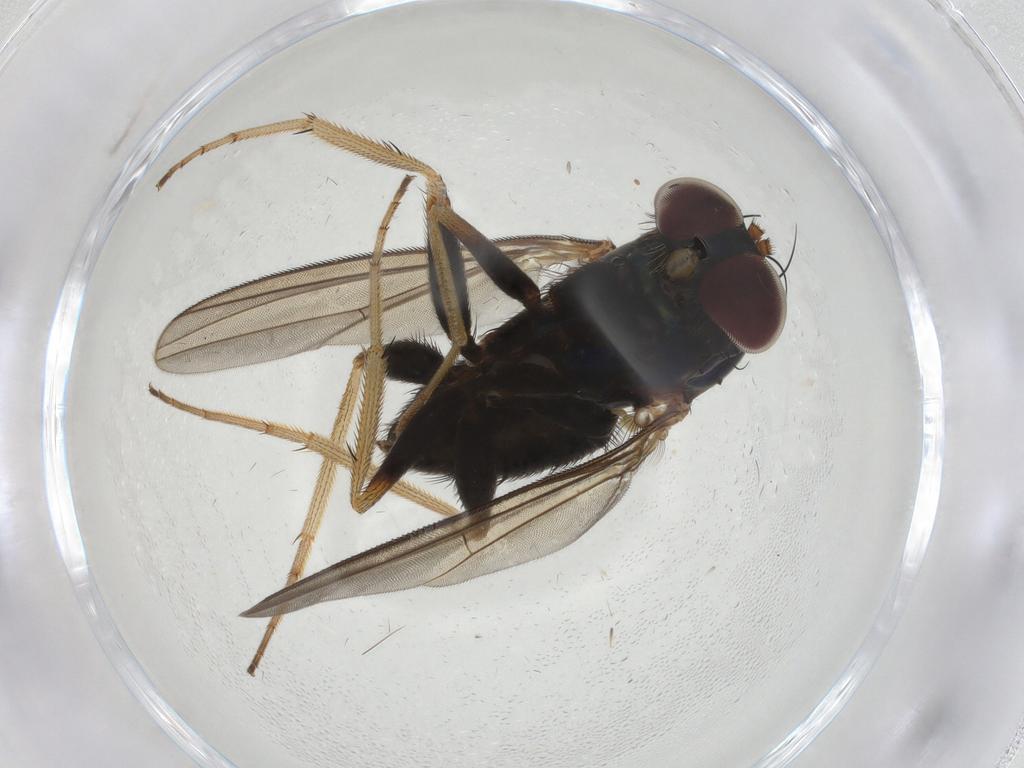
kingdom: Animalia
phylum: Arthropoda
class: Insecta
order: Diptera
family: Dolichopodidae
